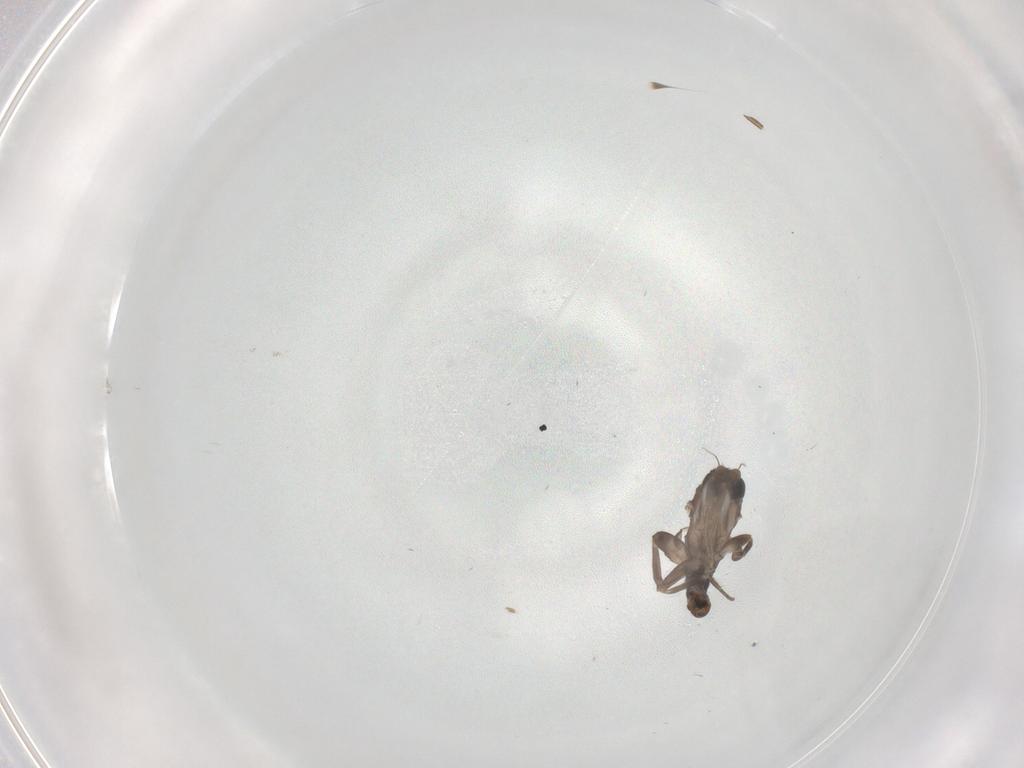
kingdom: Animalia
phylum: Arthropoda
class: Insecta
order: Diptera
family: Phoridae
